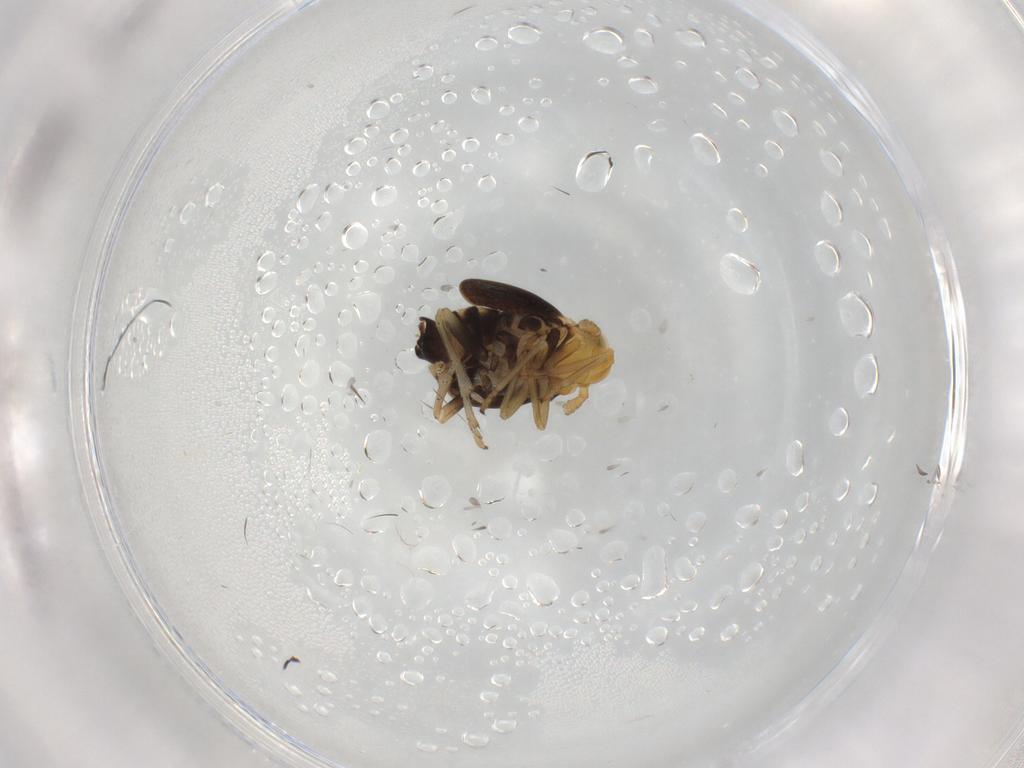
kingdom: Animalia
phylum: Arthropoda
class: Insecta
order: Hemiptera
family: Delphacidae
